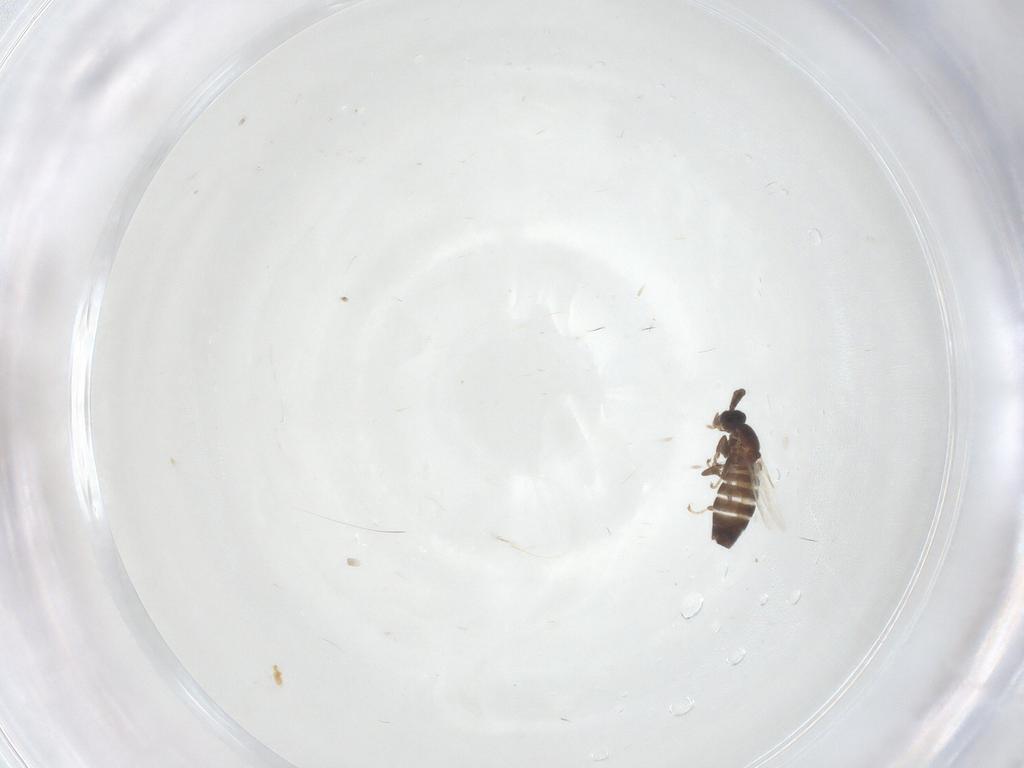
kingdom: Animalia
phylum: Arthropoda
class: Insecta
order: Diptera
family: Scatopsidae
